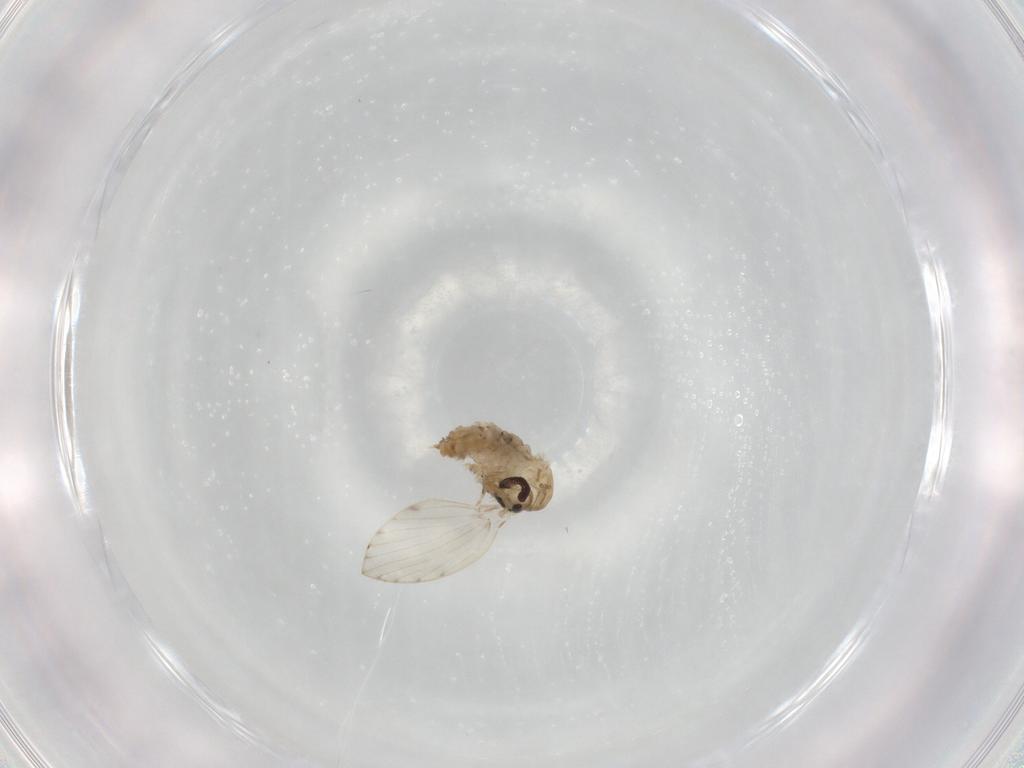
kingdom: Animalia
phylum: Arthropoda
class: Insecta
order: Diptera
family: Psychodidae
